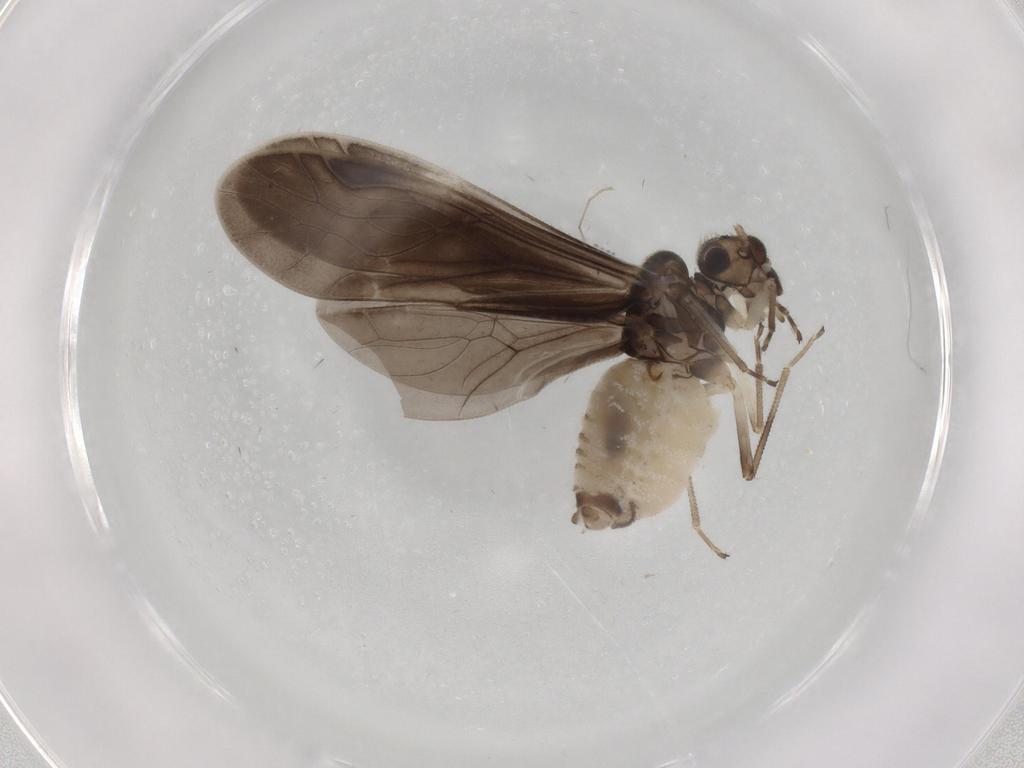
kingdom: Animalia
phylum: Arthropoda
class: Insecta
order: Psocodea
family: Caeciliusidae
